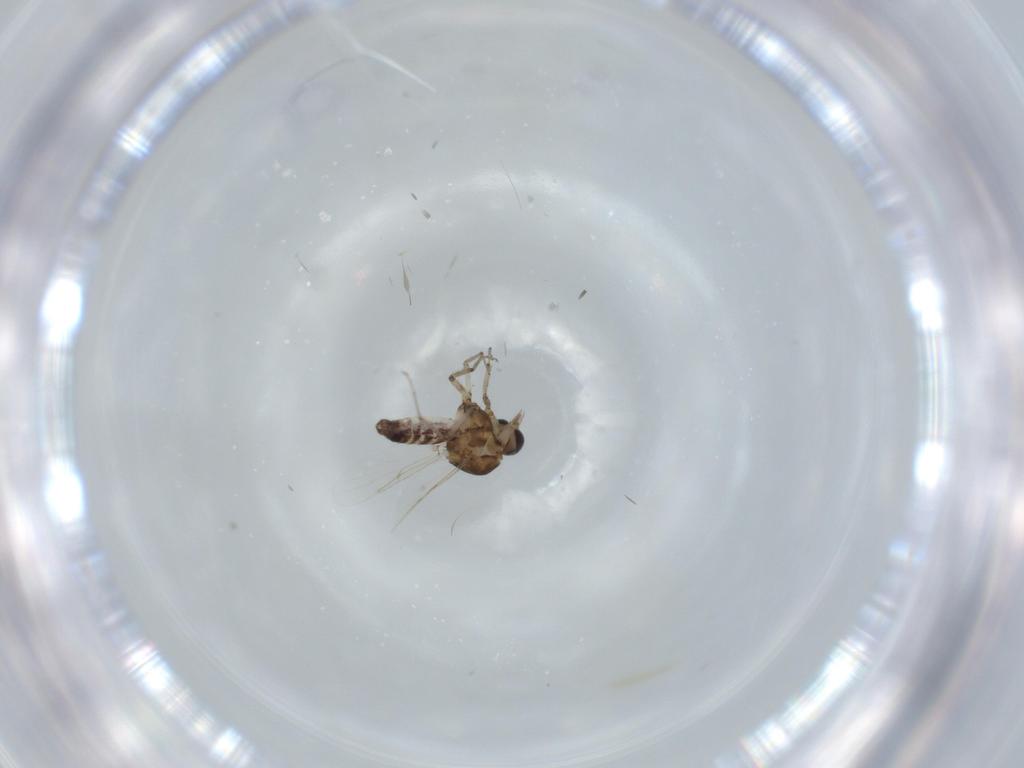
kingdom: Animalia
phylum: Arthropoda
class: Insecta
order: Diptera
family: Ceratopogonidae
